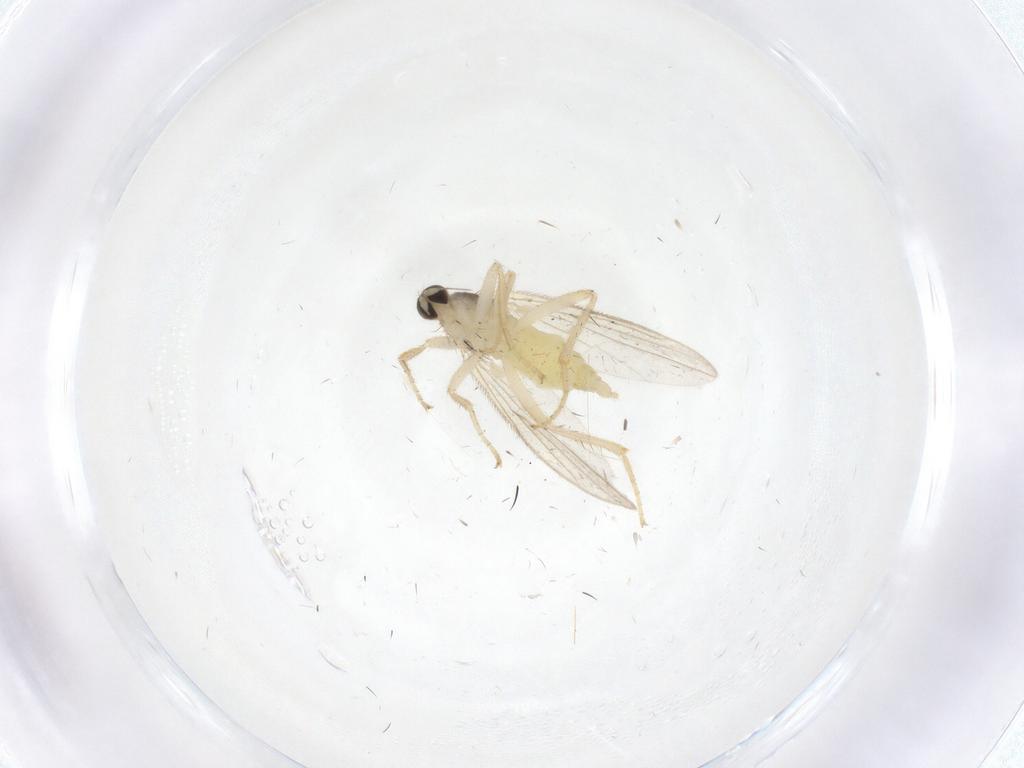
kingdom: Animalia
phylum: Arthropoda
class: Insecta
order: Diptera
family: Hybotidae
